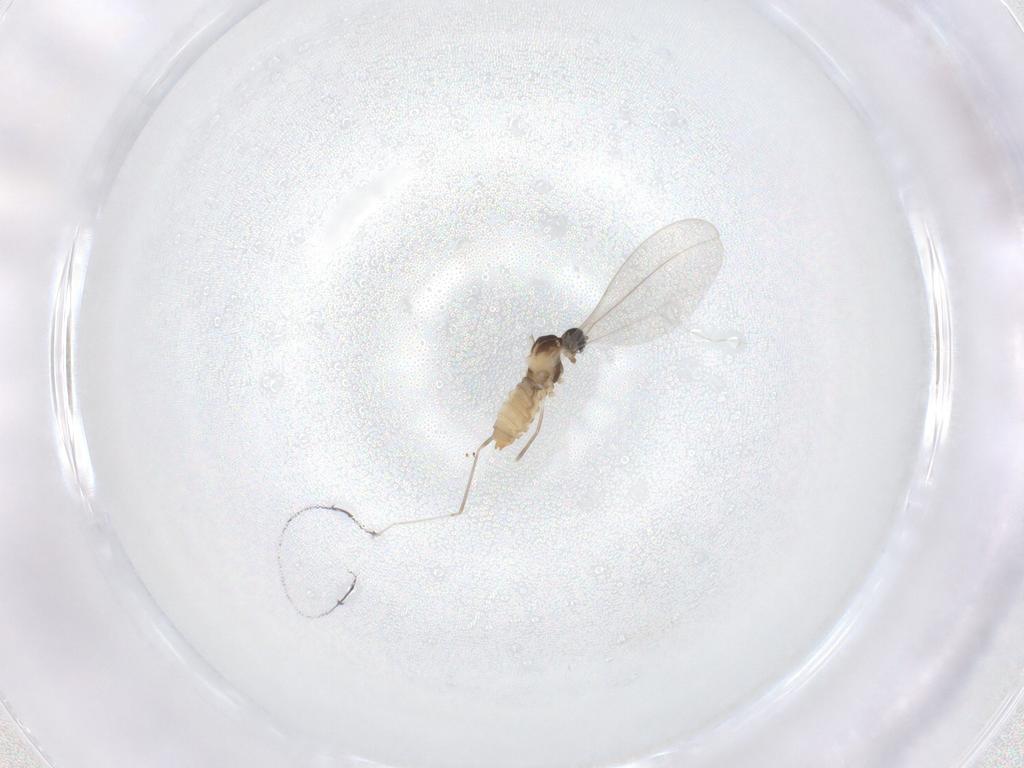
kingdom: Animalia
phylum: Arthropoda
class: Insecta
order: Diptera
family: Cecidomyiidae
